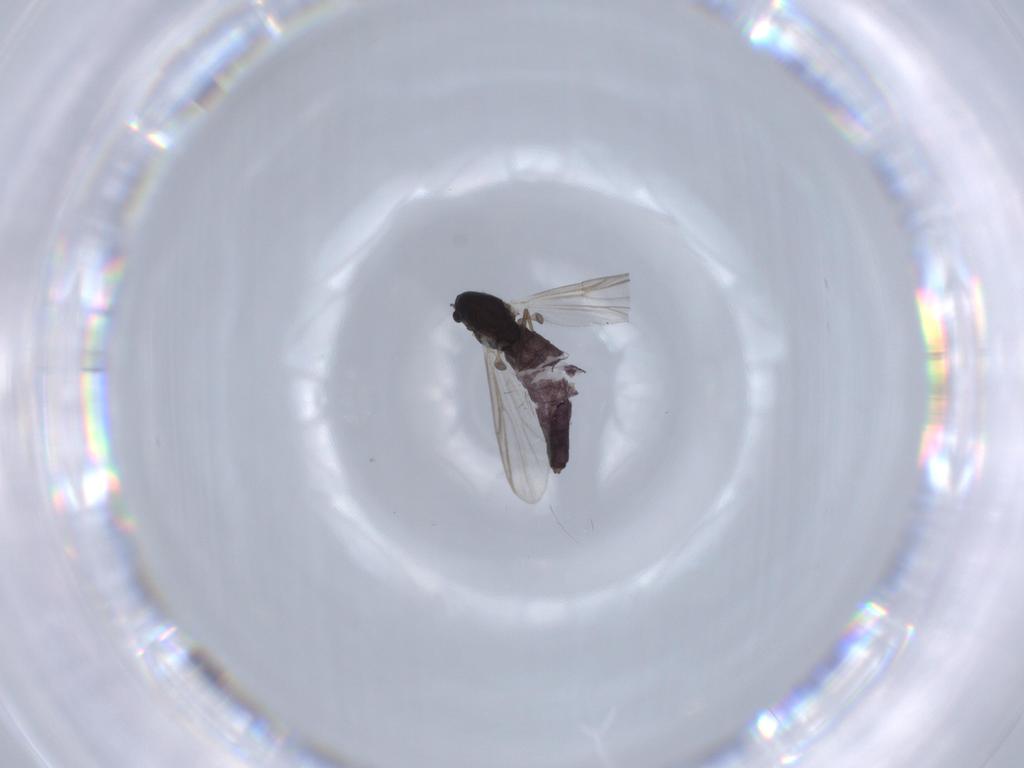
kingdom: Animalia
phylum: Arthropoda
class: Insecta
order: Diptera
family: Chironomidae
